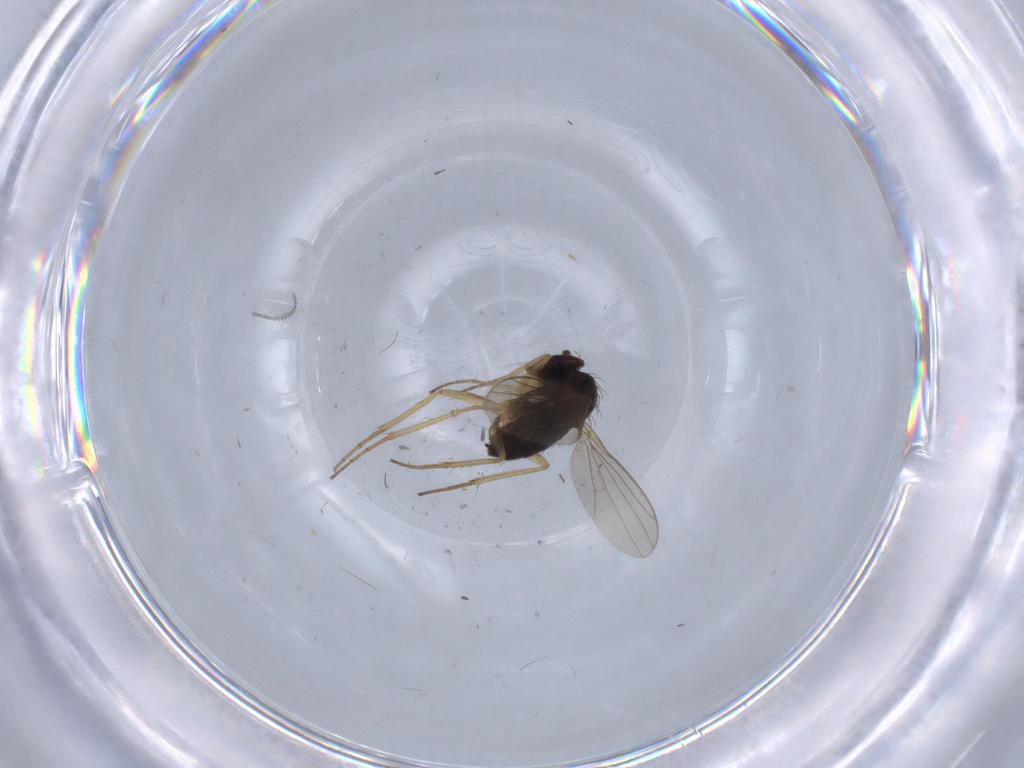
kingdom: Animalia
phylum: Arthropoda
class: Insecta
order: Diptera
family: Dolichopodidae
